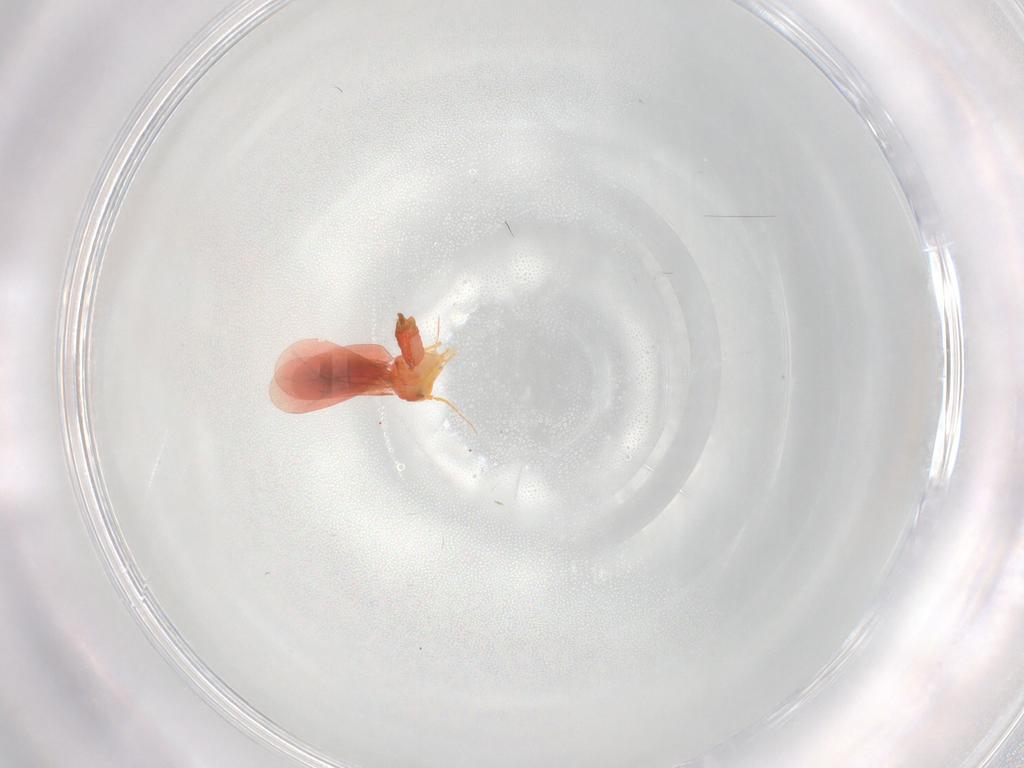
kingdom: Animalia
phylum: Arthropoda
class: Insecta
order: Hemiptera
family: Aleyrodidae
